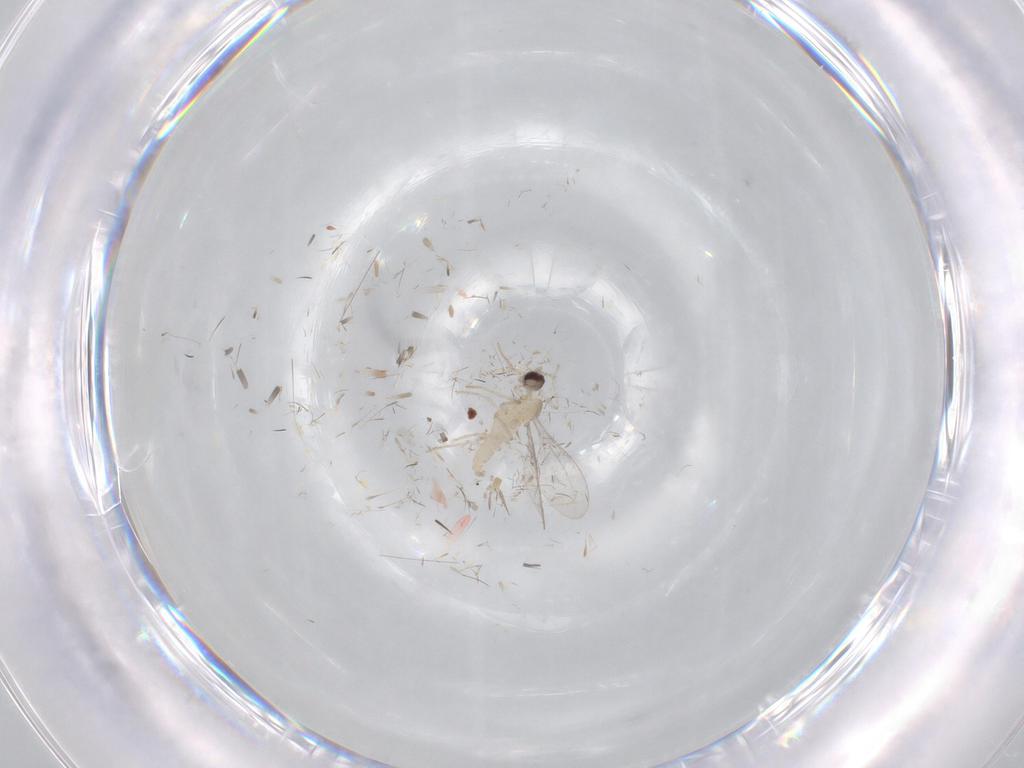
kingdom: Animalia
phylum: Arthropoda
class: Insecta
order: Diptera
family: Cecidomyiidae
